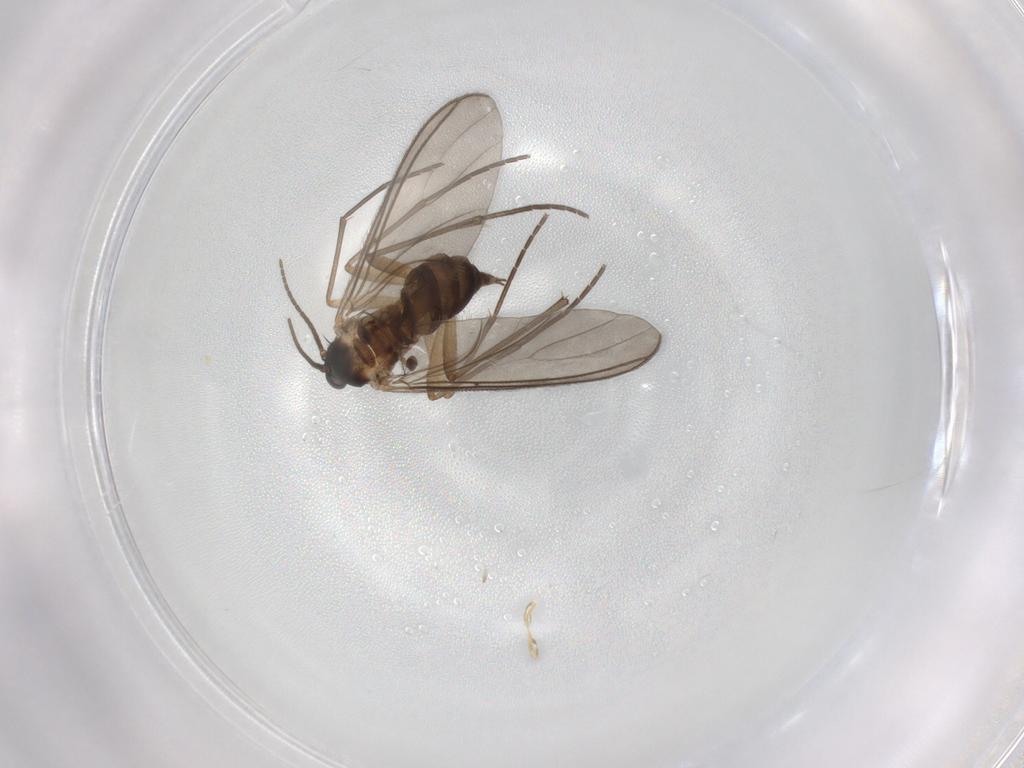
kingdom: Animalia
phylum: Arthropoda
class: Insecta
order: Diptera
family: Sciaridae
